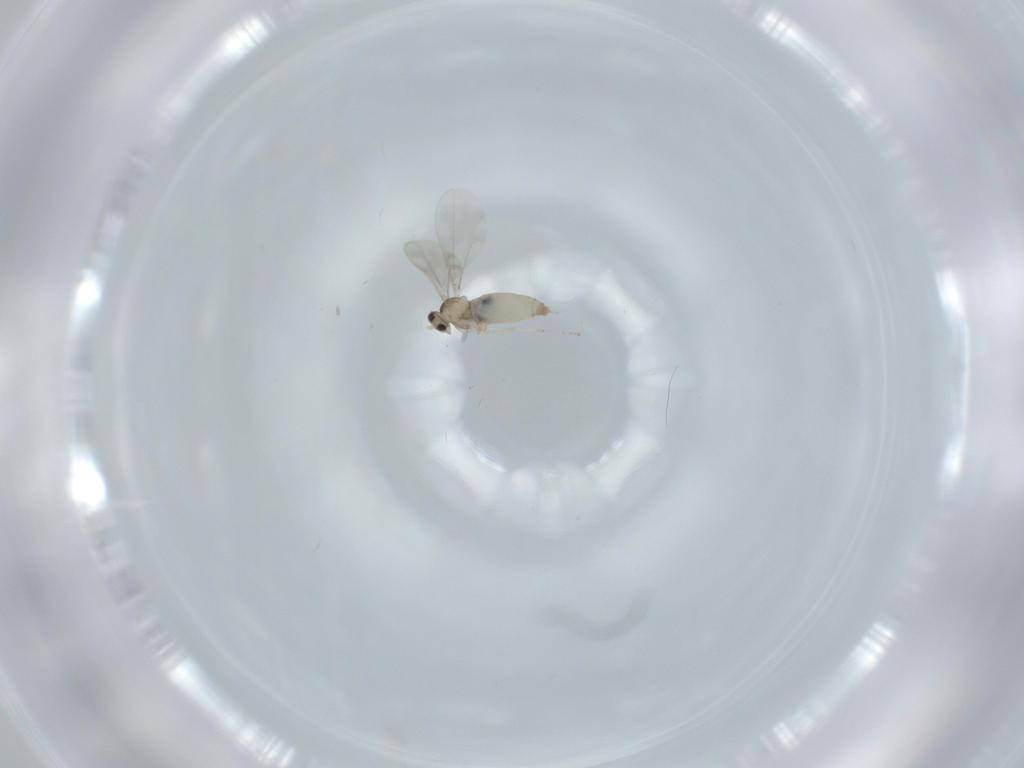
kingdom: Animalia
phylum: Arthropoda
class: Insecta
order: Diptera
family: Cecidomyiidae
